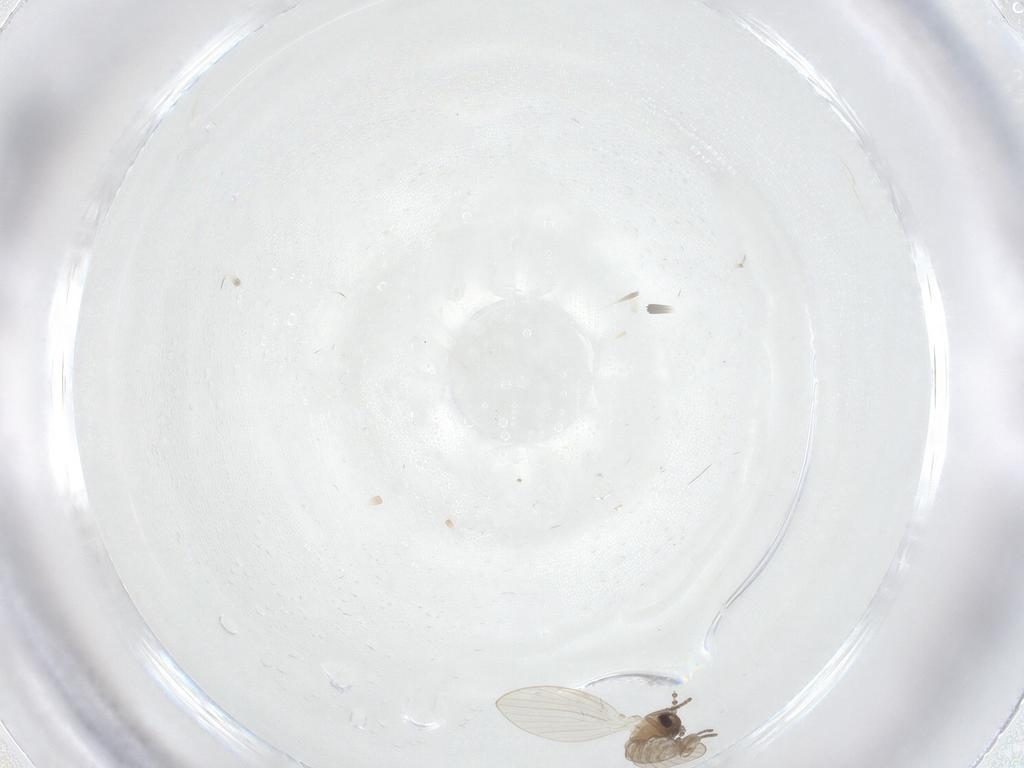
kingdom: Animalia
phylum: Arthropoda
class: Insecta
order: Diptera
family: Psychodidae
